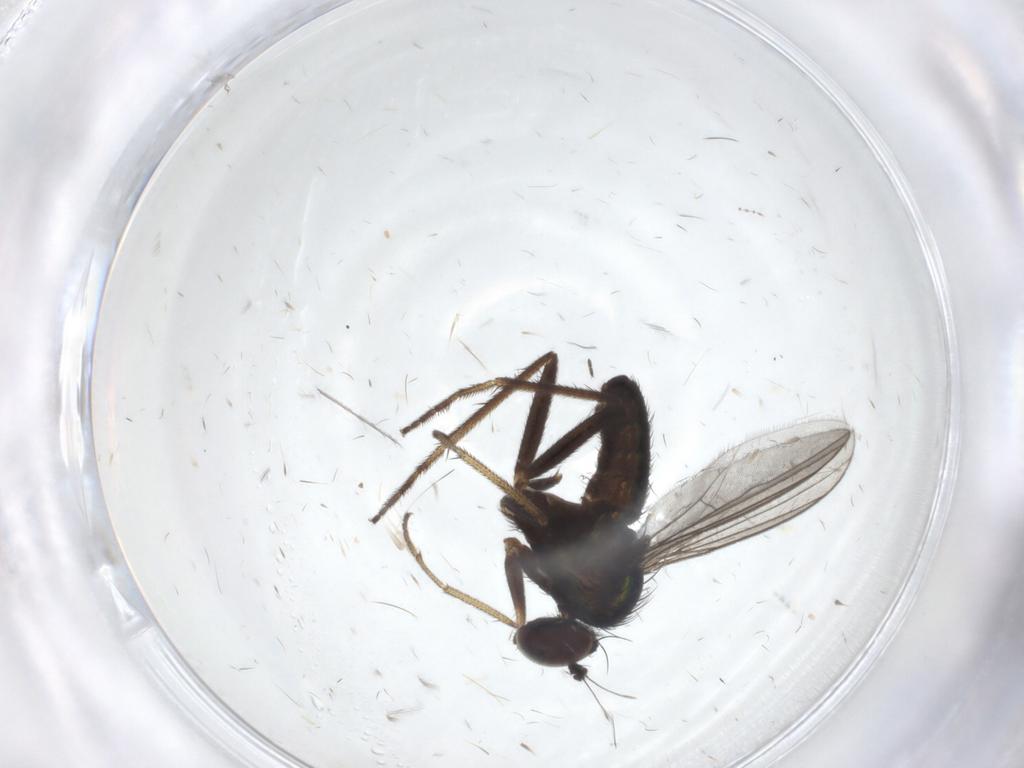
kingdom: Animalia
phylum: Arthropoda
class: Insecta
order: Diptera
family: Dolichopodidae
